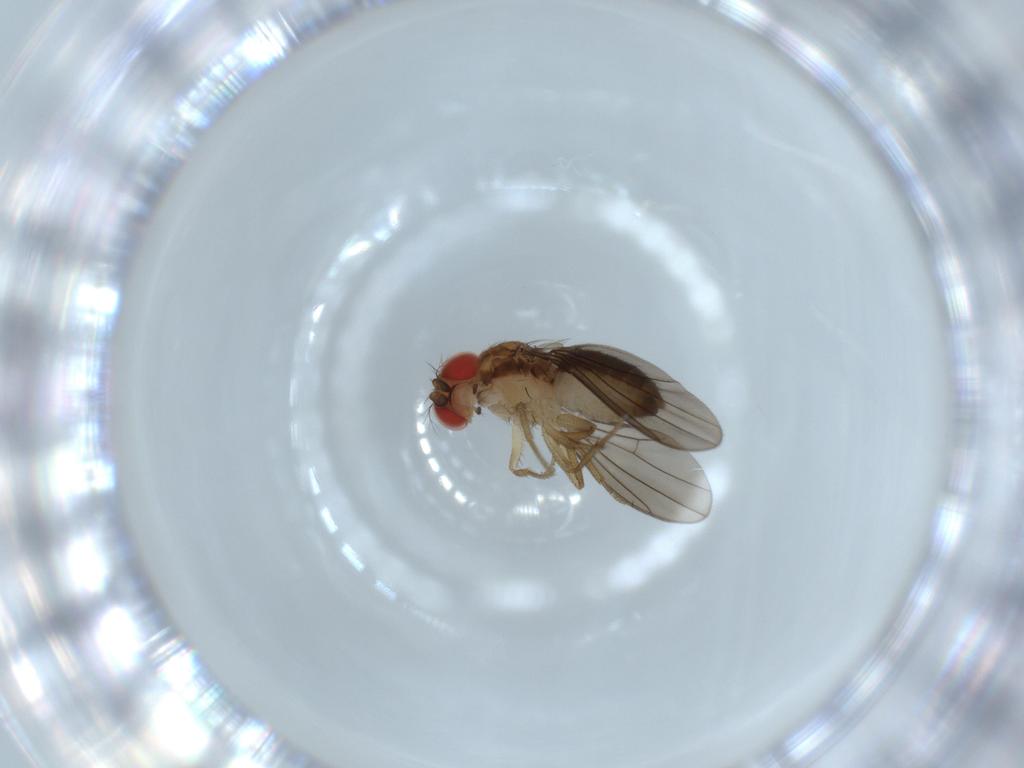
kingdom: Animalia
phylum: Arthropoda
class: Insecta
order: Diptera
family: Drosophilidae
